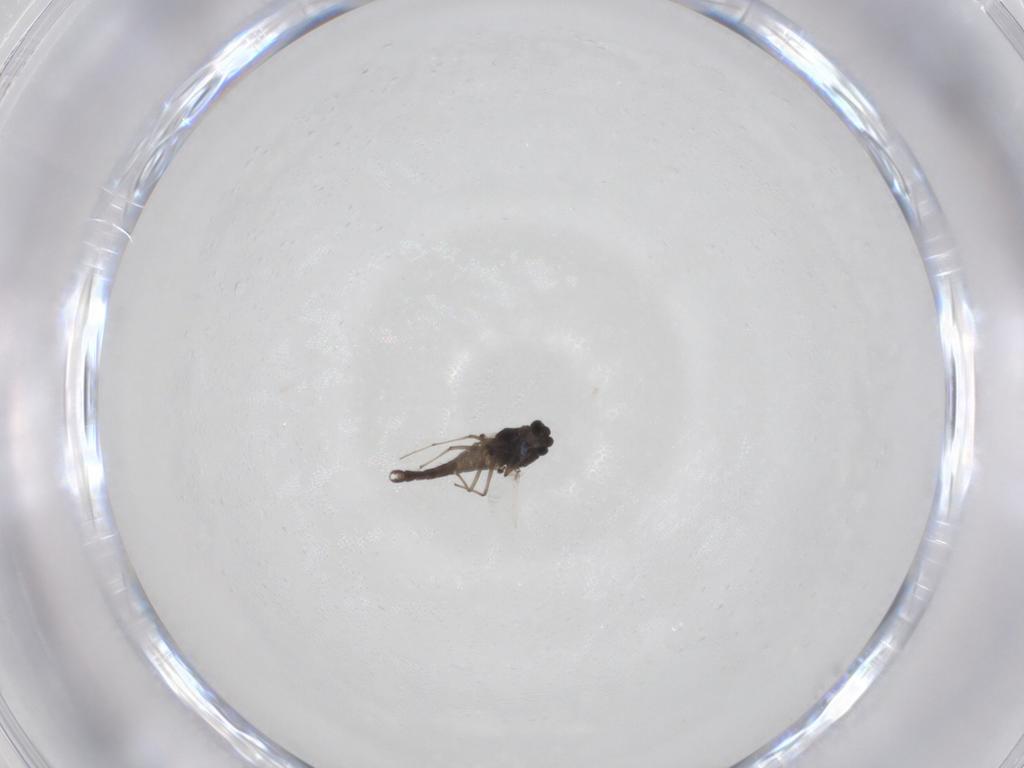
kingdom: Animalia
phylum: Arthropoda
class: Insecta
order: Diptera
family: Chironomidae
